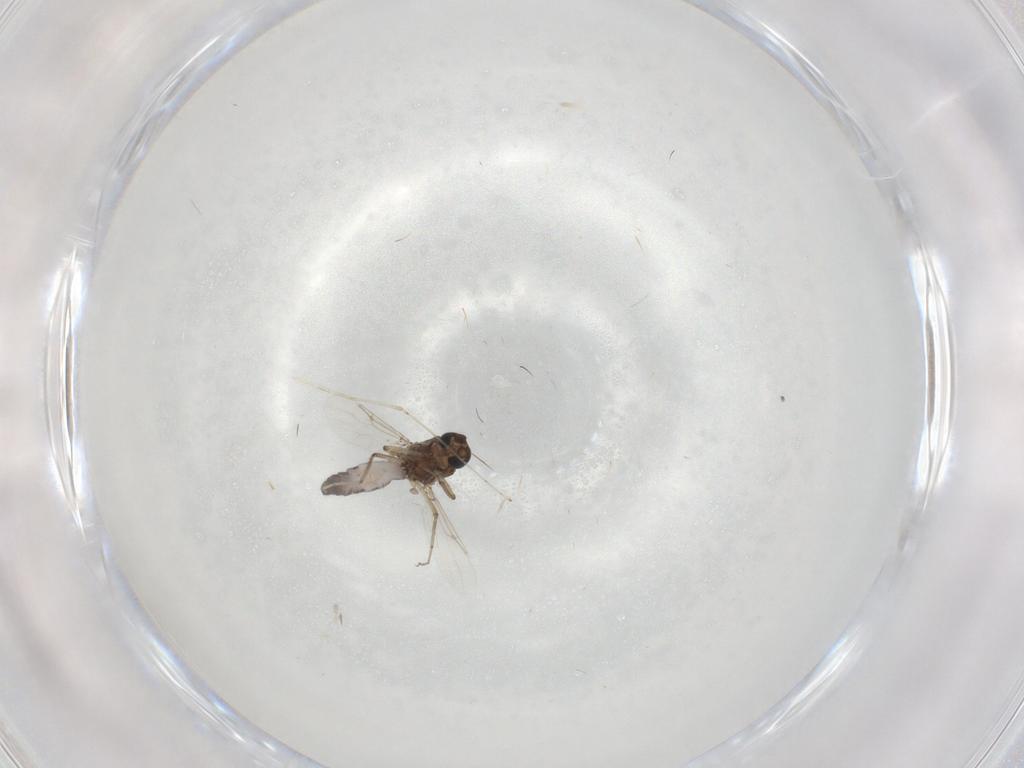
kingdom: Animalia
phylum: Arthropoda
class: Insecta
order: Diptera
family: Ceratopogonidae
